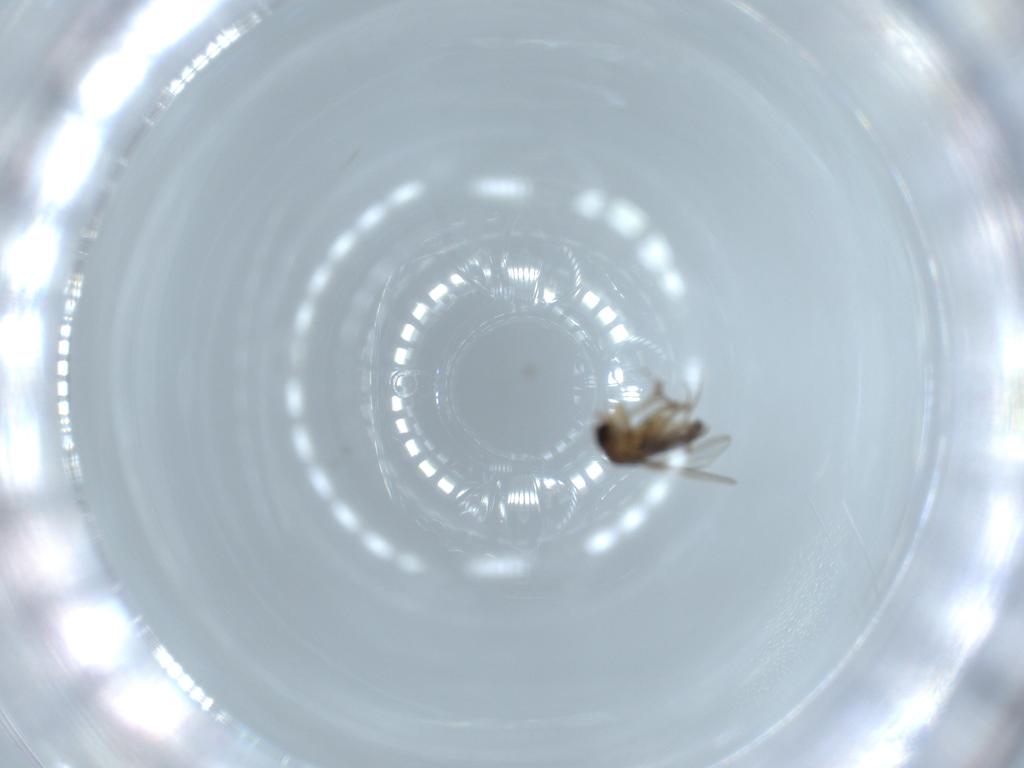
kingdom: Animalia
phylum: Arthropoda
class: Insecta
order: Diptera
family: Phoridae
